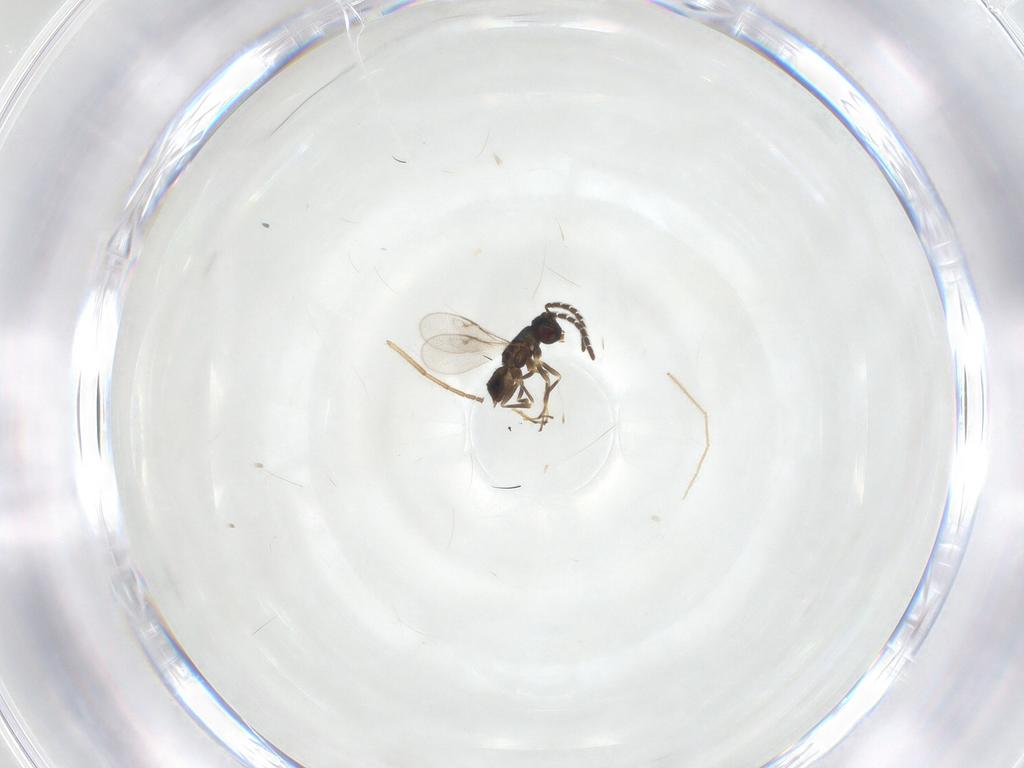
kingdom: Animalia
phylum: Arthropoda
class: Insecta
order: Hymenoptera
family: Encyrtidae
